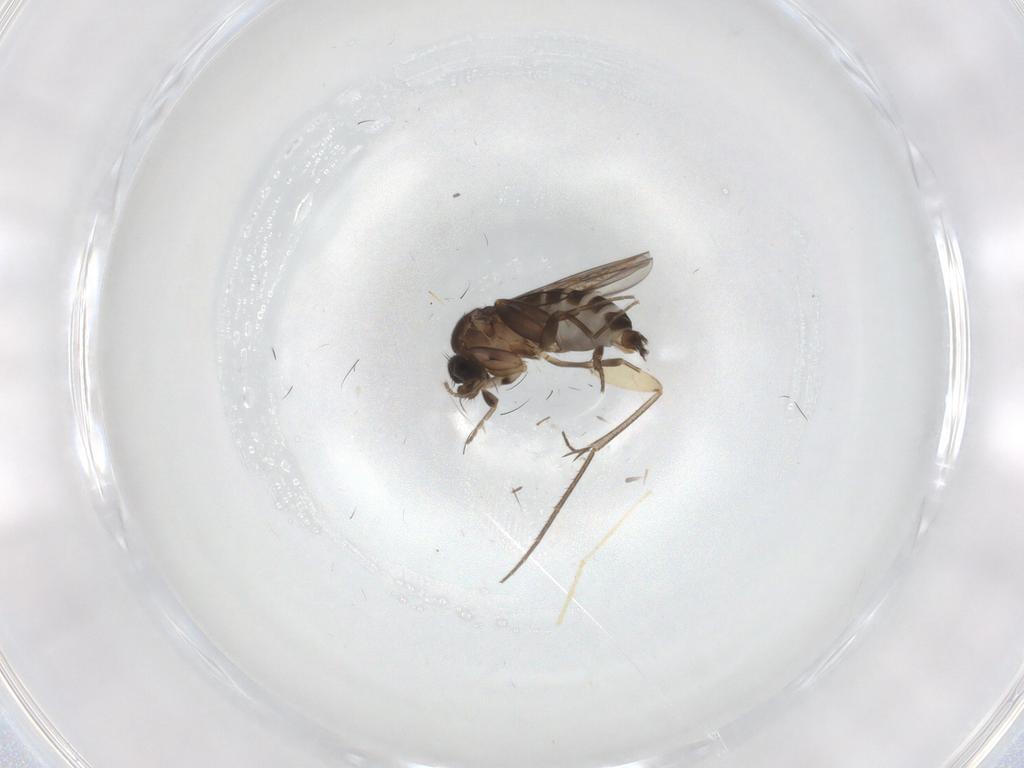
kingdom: Animalia
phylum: Arthropoda
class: Insecta
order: Diptera
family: Mycetophilidae
